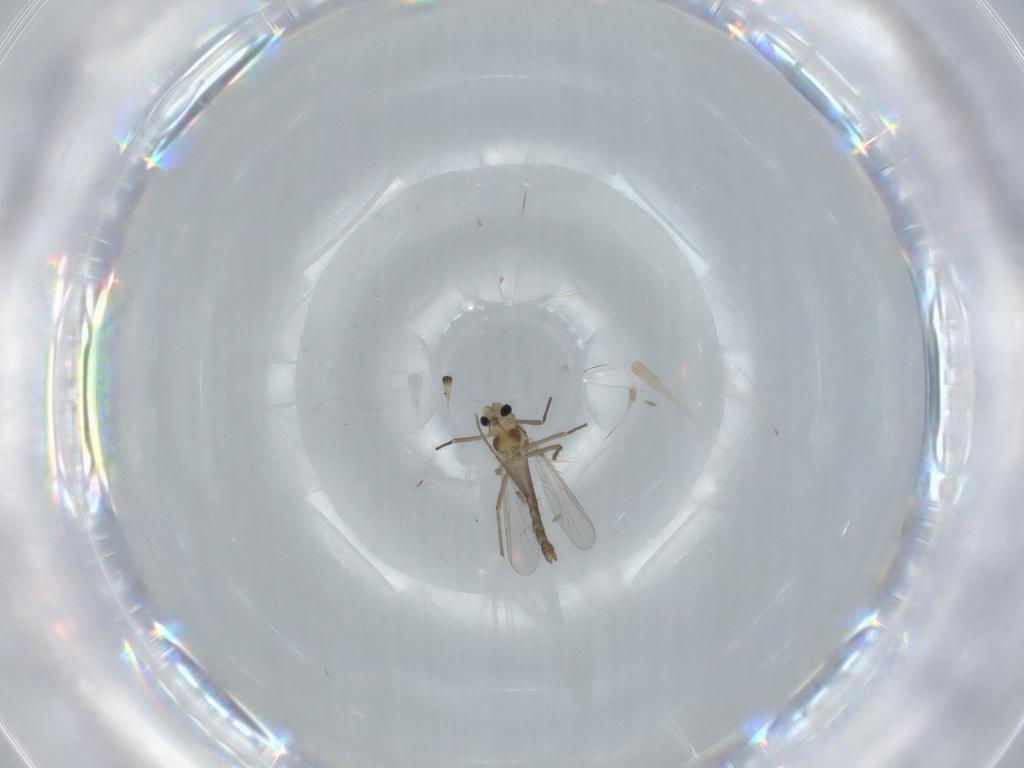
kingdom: Animalia
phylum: Arthropoda
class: Insecta
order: Diptera
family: Chironomidae
